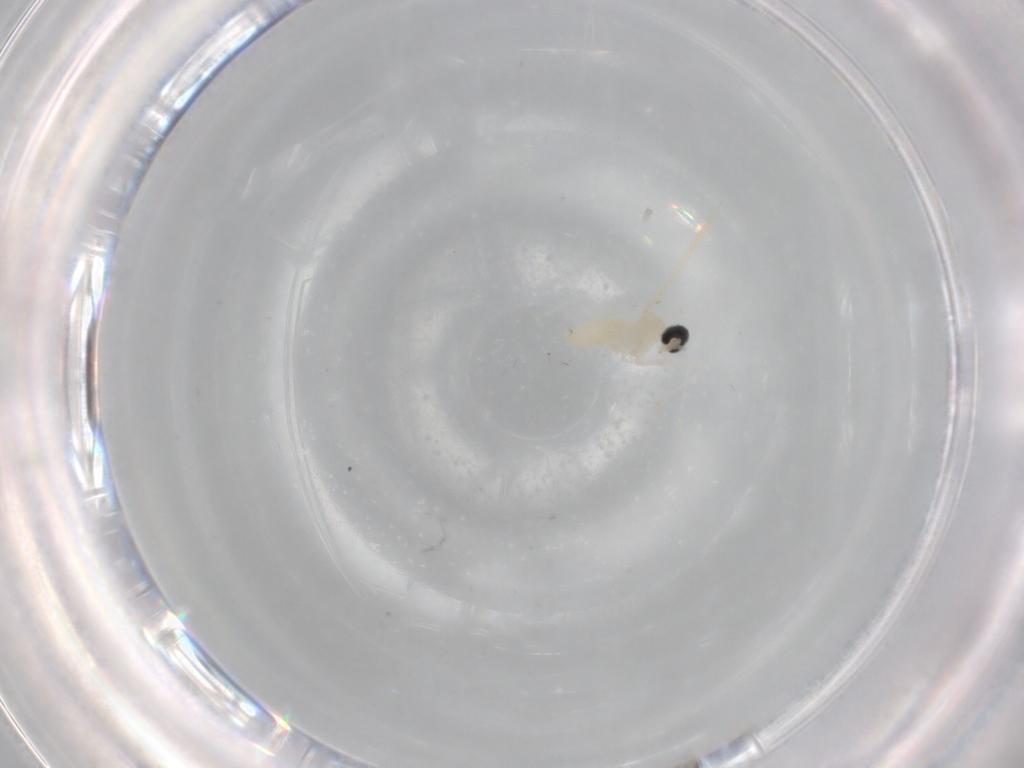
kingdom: Animalia
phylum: Arthropoda
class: Insecta
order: Diptera
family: Cecidomyiidae
